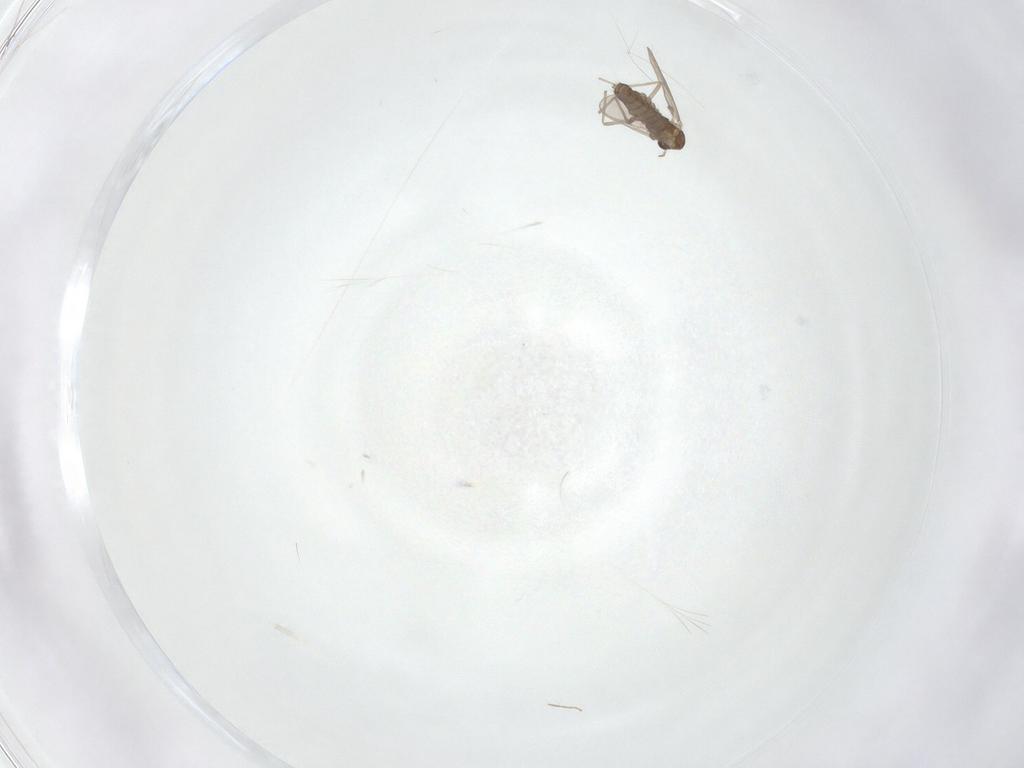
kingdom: Animalia
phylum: Arthropoda
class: Insecta
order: Diptera
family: Chironomidae
